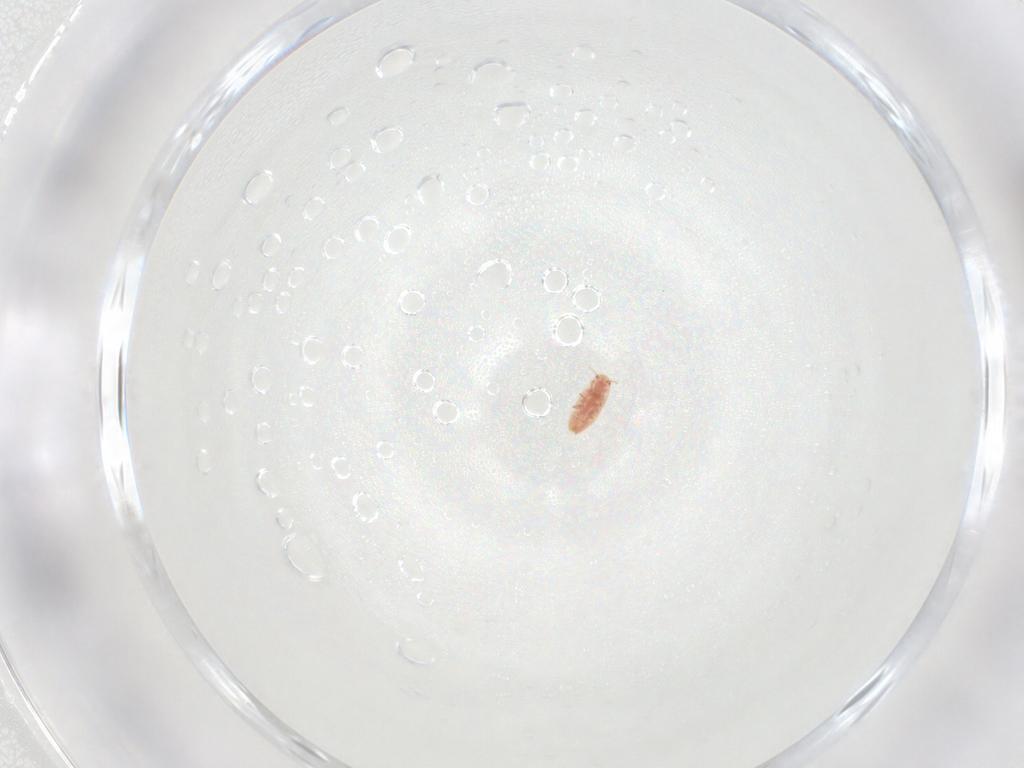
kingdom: Animalia
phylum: Arthropoda
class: Insecta
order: Hemiptera
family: Coccidae
